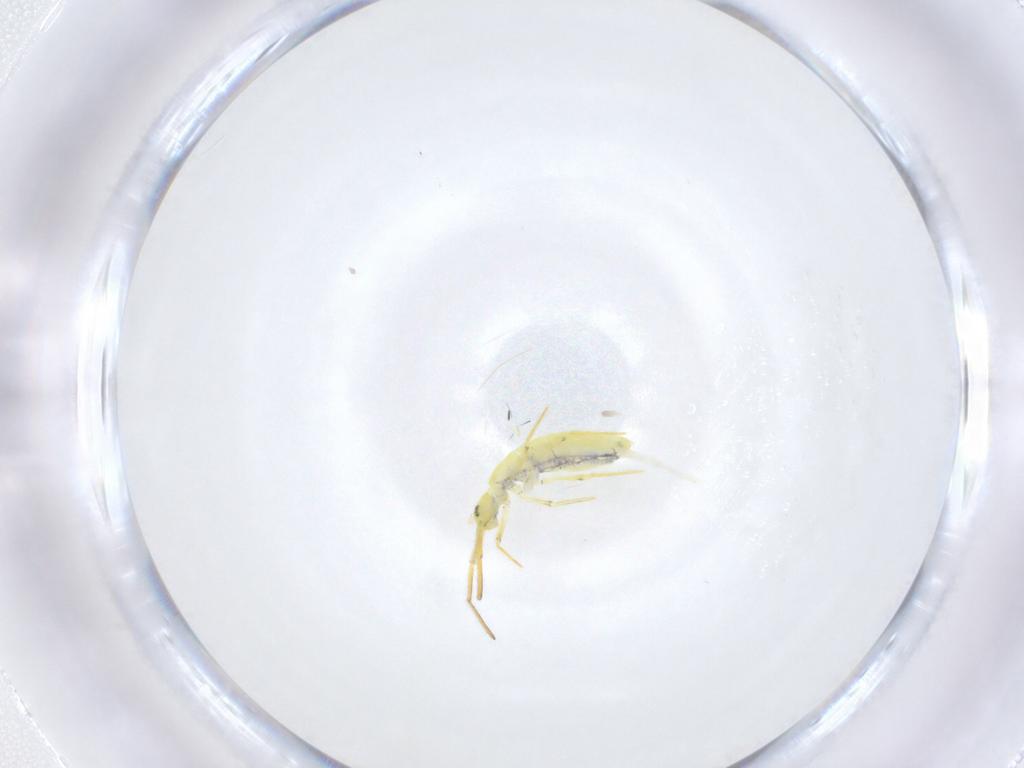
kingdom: Animalia
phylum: Arthropoda
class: Collembola
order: Entomobryomorpha
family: Entomobryidae
